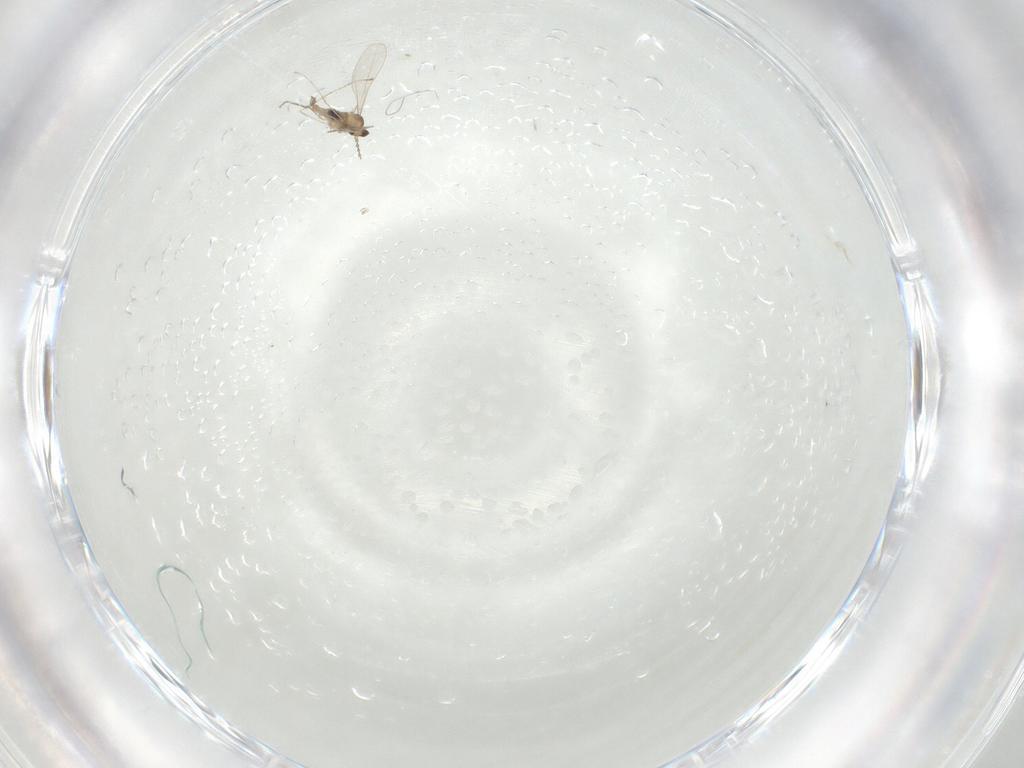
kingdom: Animalia
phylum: Arthropoda
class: Insecta
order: Diptera
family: Cecidomyiidae
